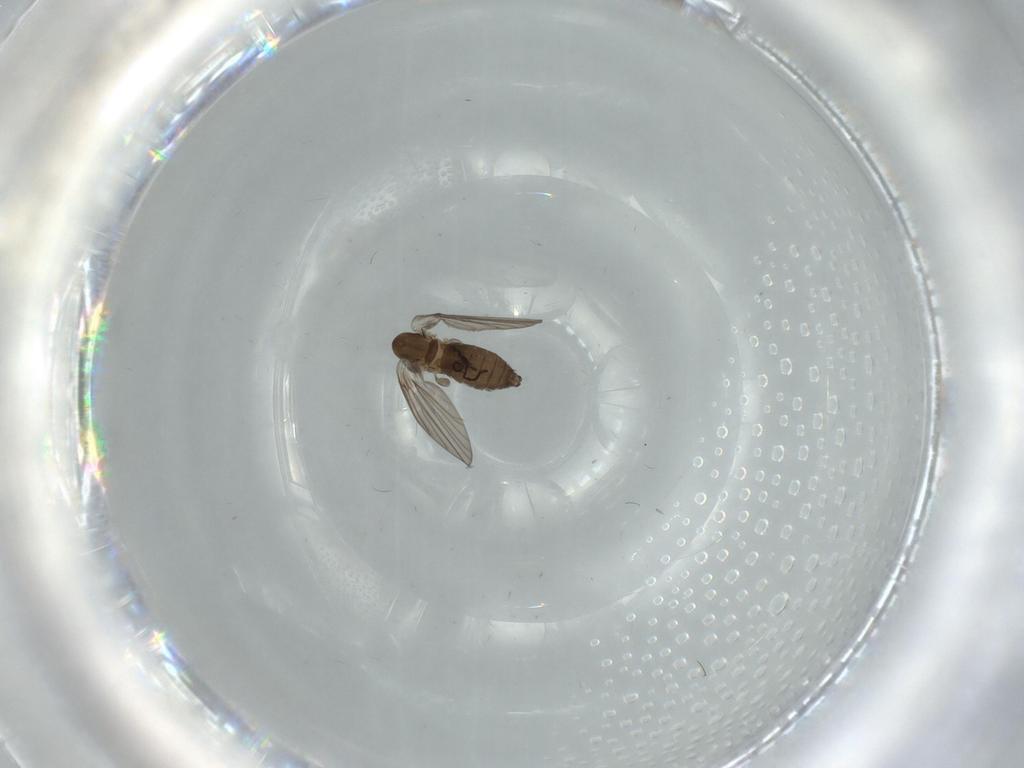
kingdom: Animalia
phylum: Arthropoda
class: Insecta
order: Diptera
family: Psychodidae
